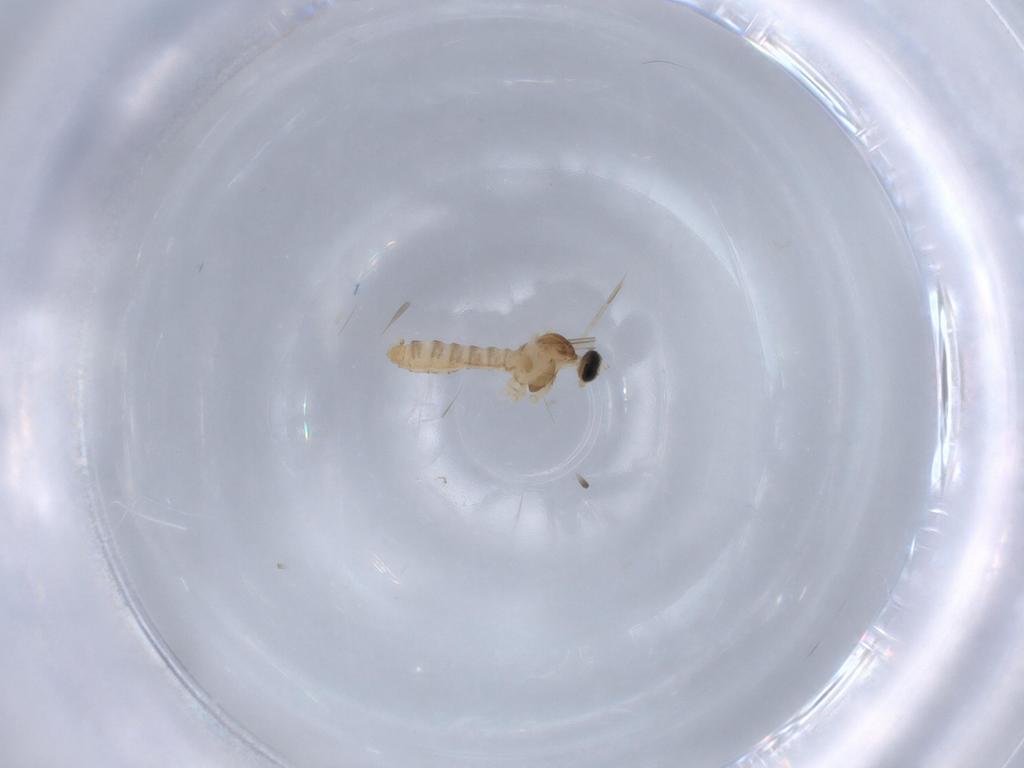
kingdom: Animalia
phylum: Arthropoda
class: Insecta
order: Diptera
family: Cecidomyiidae
